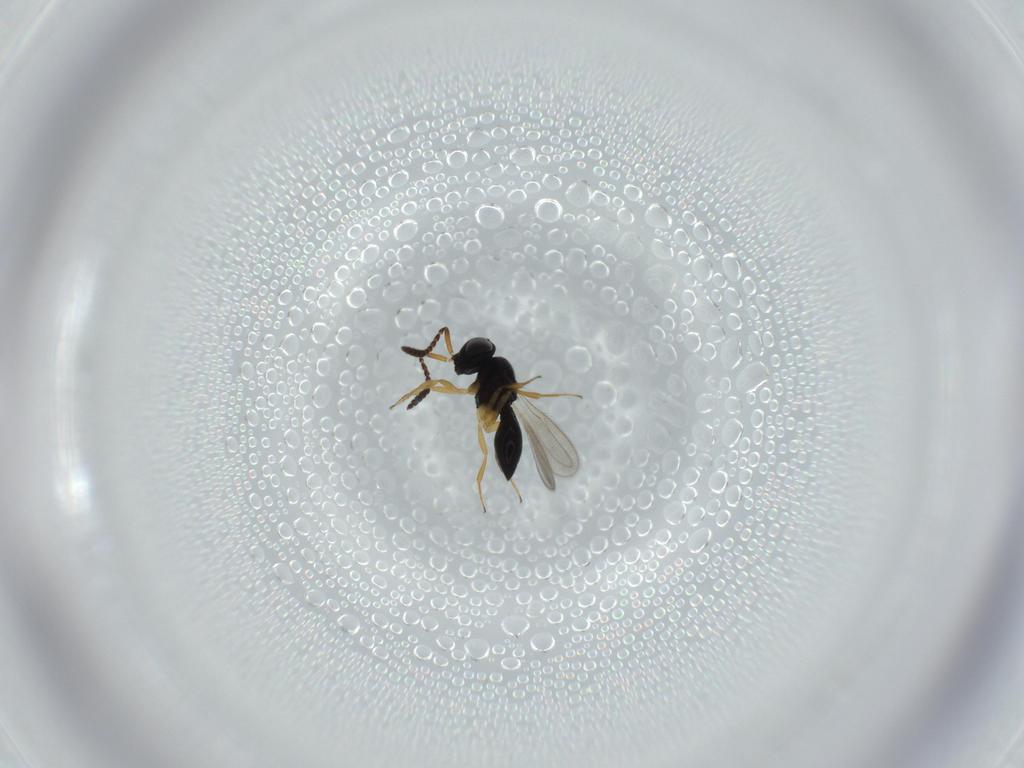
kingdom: Animalia
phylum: Arthropoda
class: Insecta
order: Hymenoptera
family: Scelionidae
